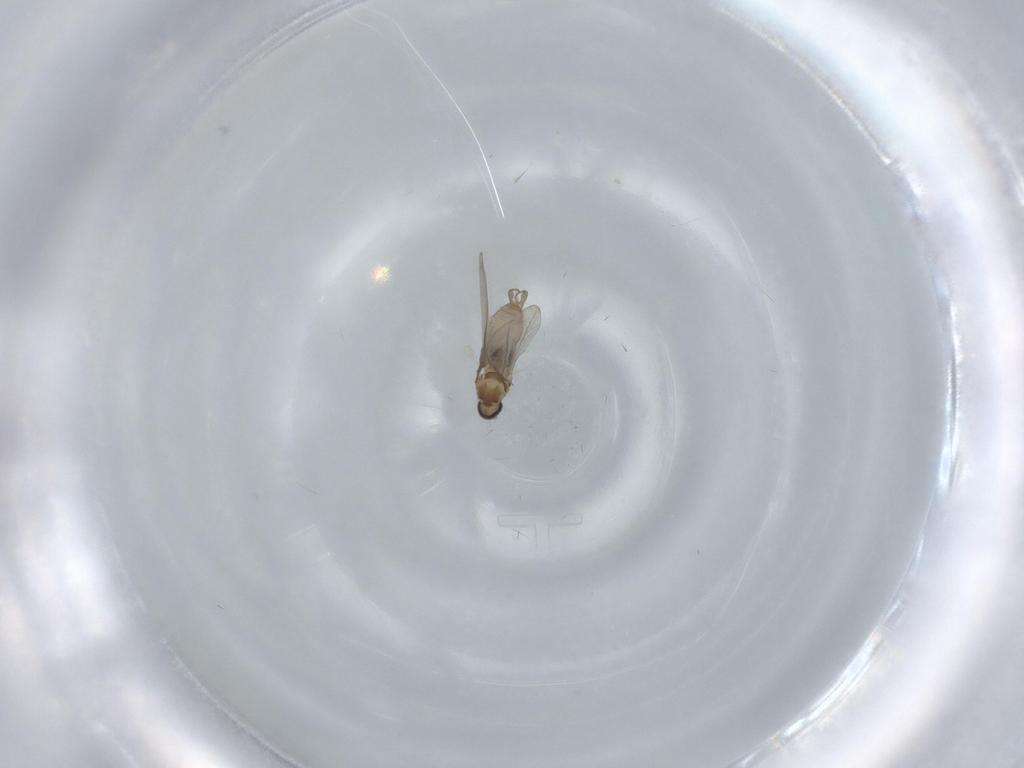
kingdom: Animalia
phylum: Arthropoda
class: Insecta
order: Diptera
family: Cecidomyiidae
